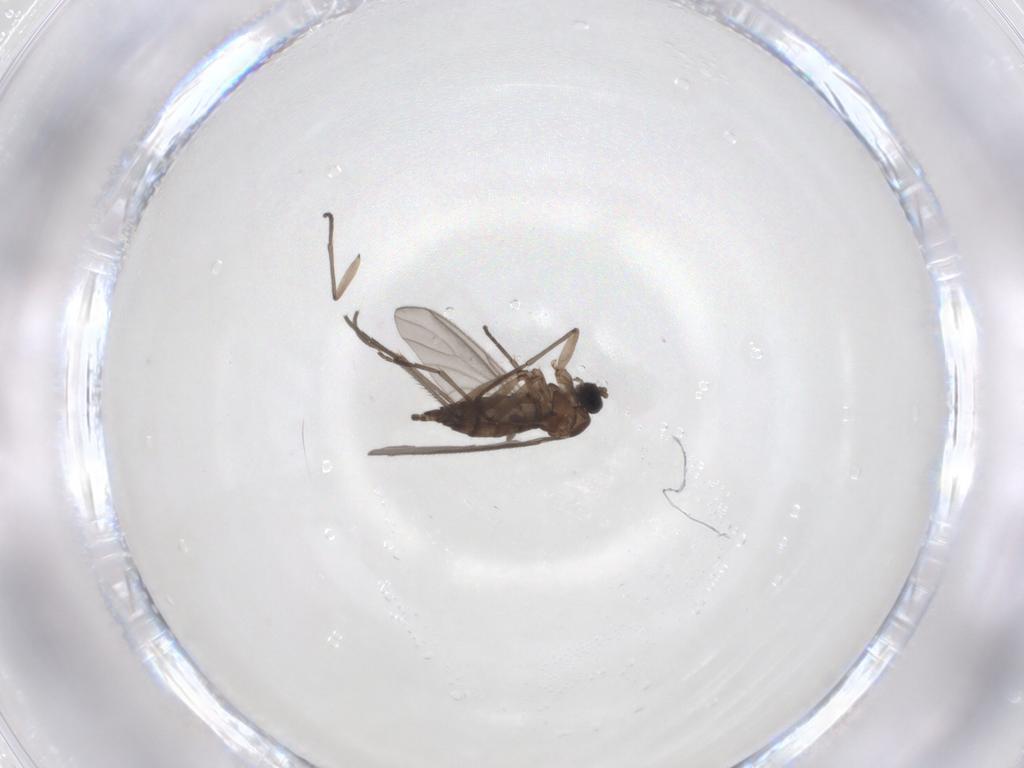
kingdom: Animalia
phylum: Arthropoda
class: Insecta
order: Diptera
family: Sciaridae
